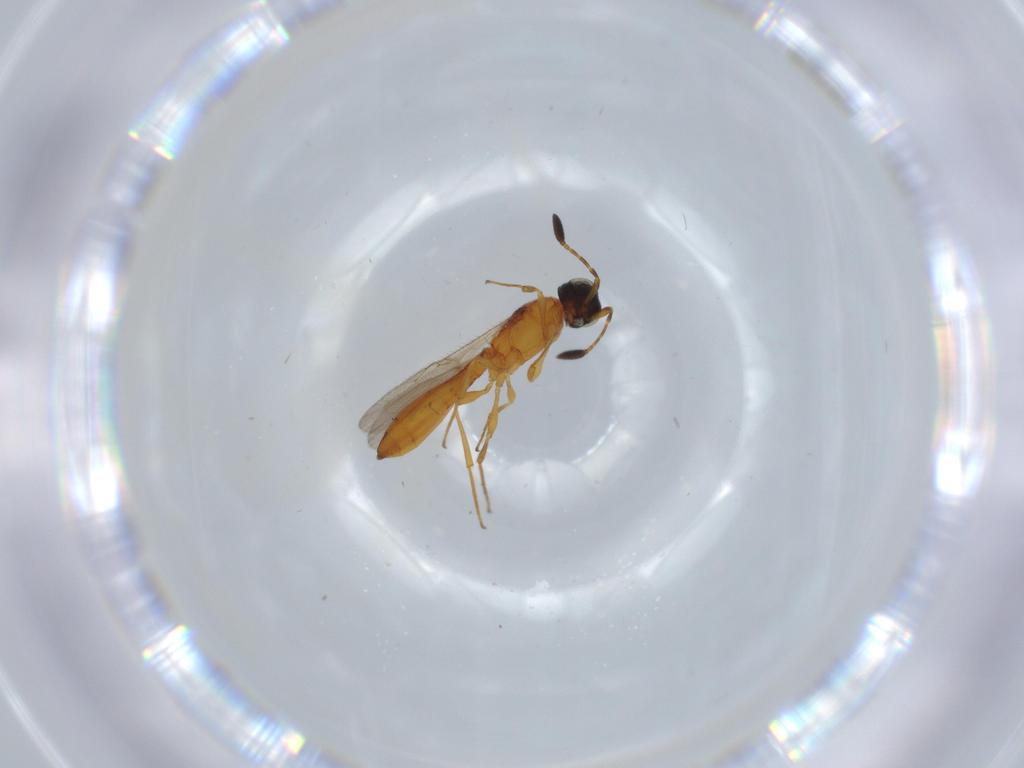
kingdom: Animalia
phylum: Arthropoda
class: Insecta
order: Hymenoptera
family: Scelionidae
